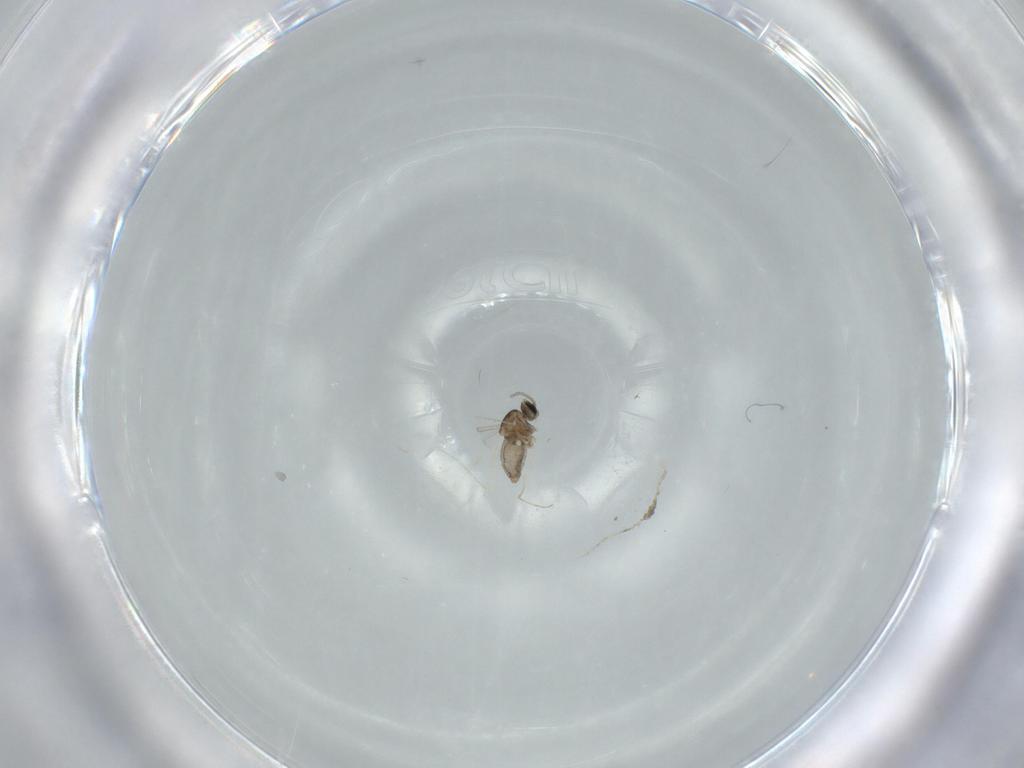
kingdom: Animalia
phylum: Arthropoda
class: Insecta
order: Diptera
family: Cecidomyiidae
